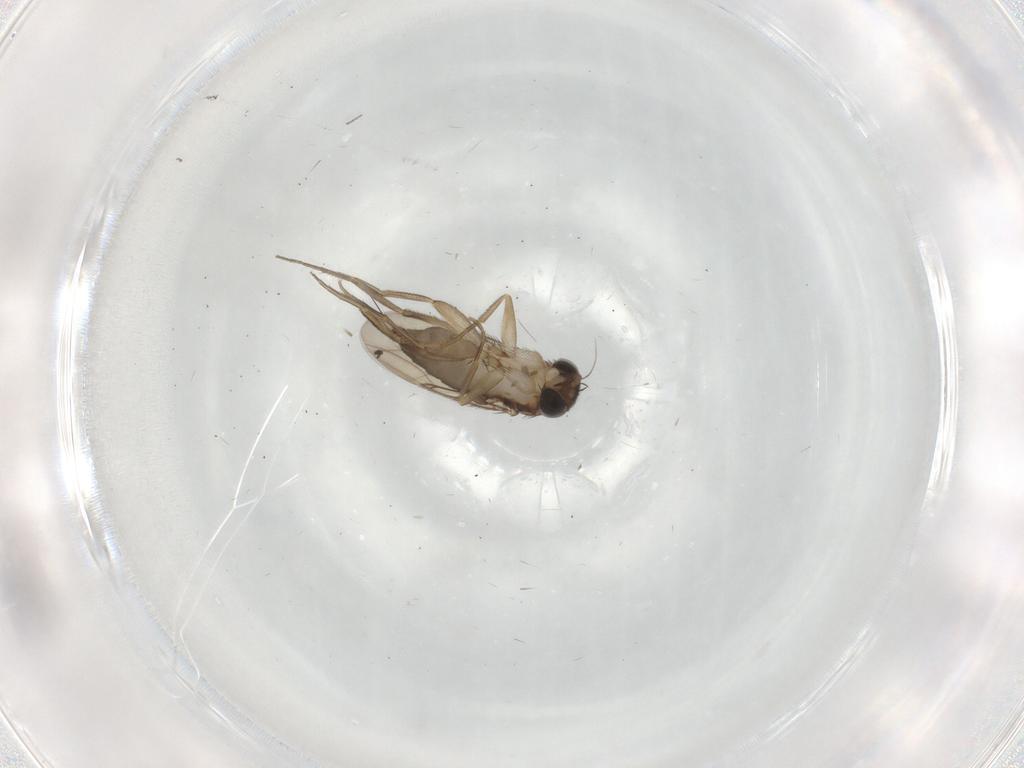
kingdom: Animalia
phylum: Arthropoda
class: Insecta
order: Diptera
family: Phoridae
